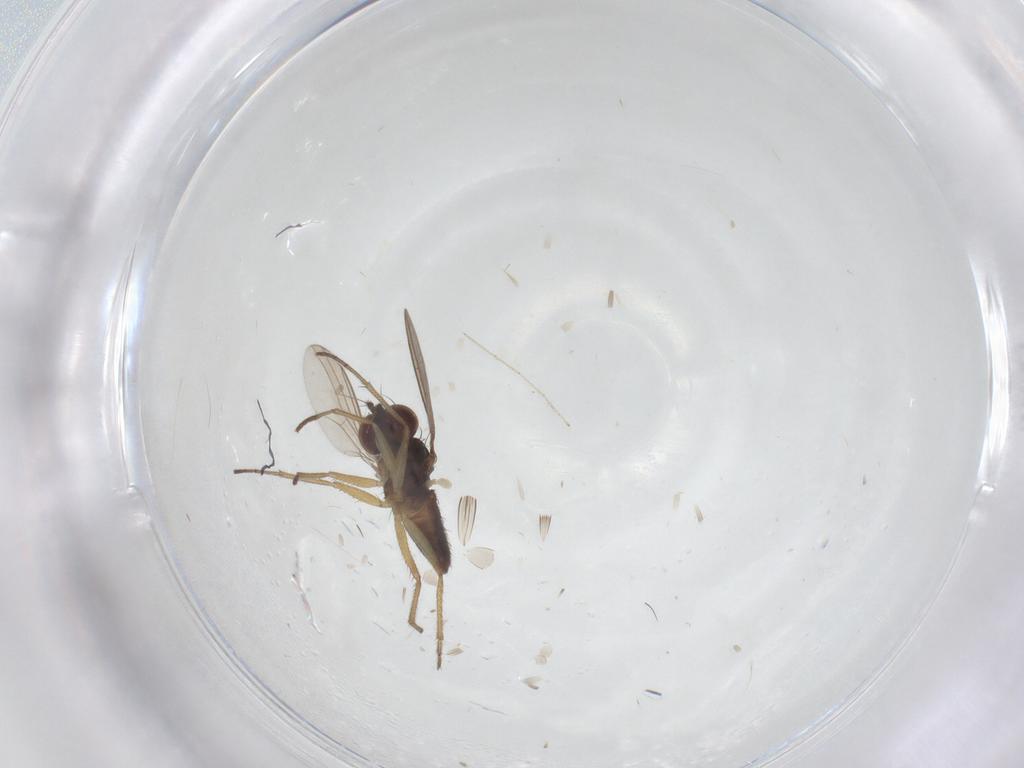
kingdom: Animalia
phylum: Arthropoda
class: Insecta
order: Diptera
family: Dolichopodidae
